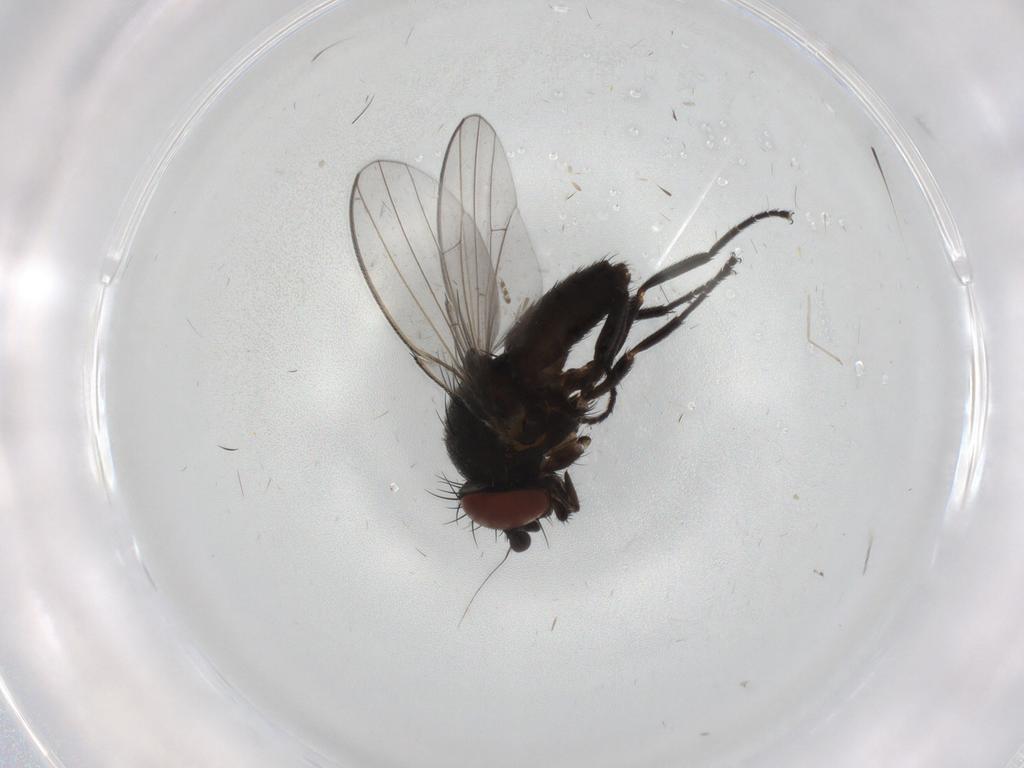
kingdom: Animalia
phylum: Arthropoda
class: Insecta
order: Diptera
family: Milichiidae
